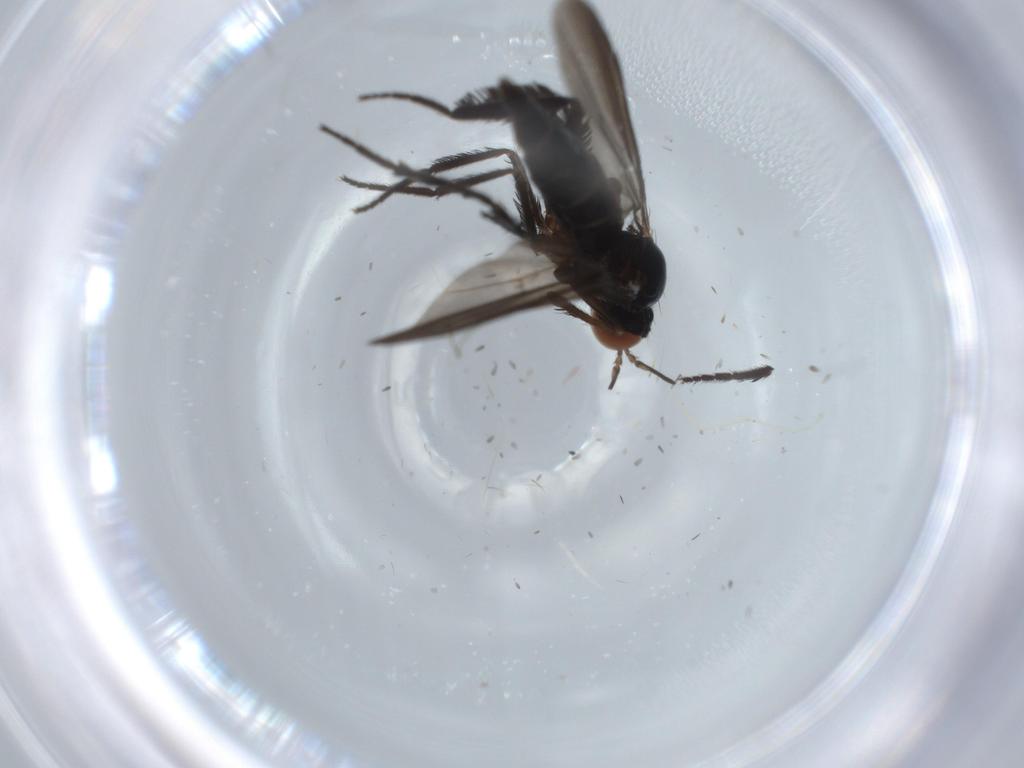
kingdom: Animalia
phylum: Arthropoda
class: Insecta
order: Diptera
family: Empididae
